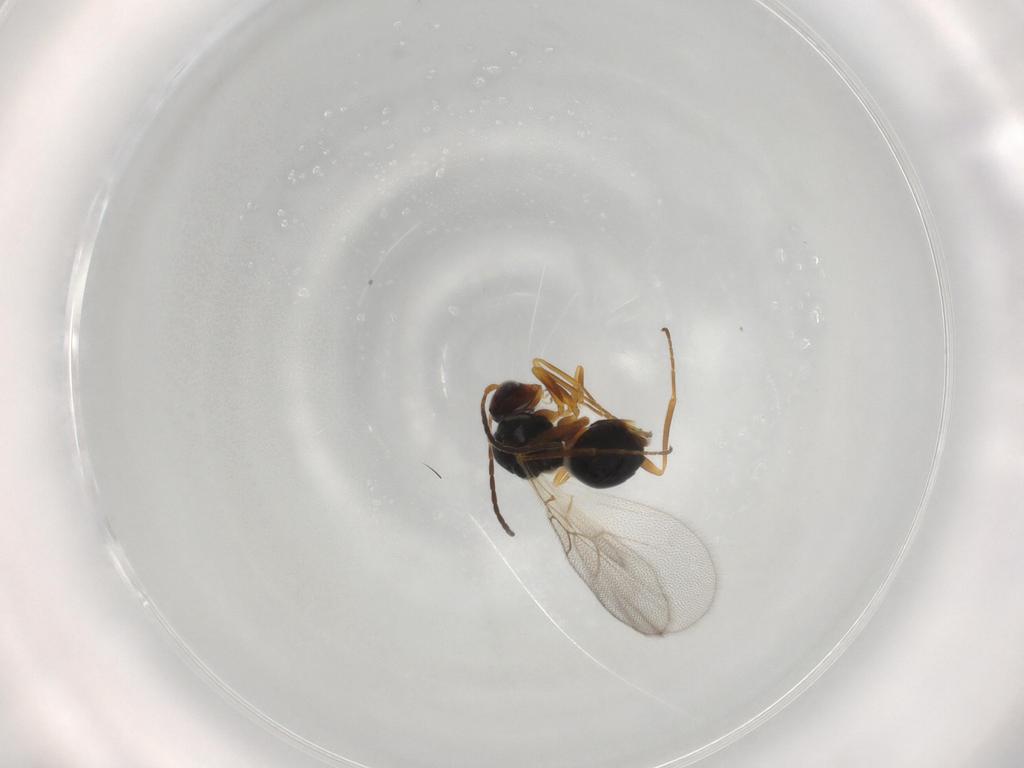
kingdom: Animalia
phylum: Arthropoda
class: Insecta
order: Hymenoptera
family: Figitidae
